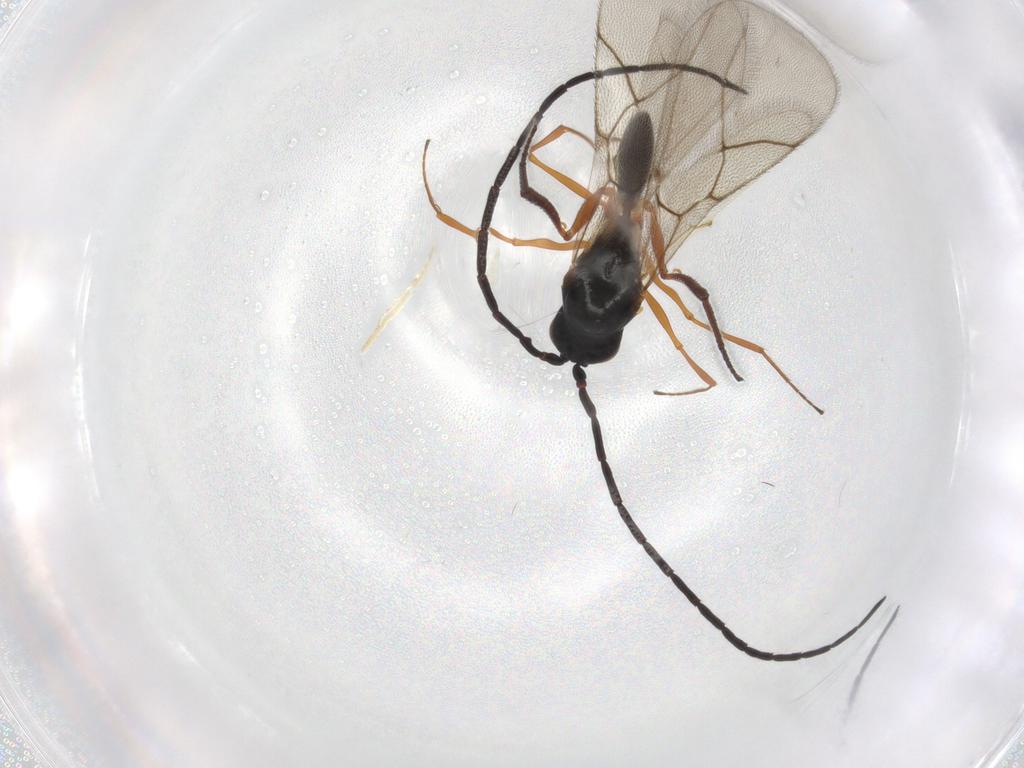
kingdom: Animalia
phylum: Arthropoda
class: Insecta
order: Hymenoptera
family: Figitidae
